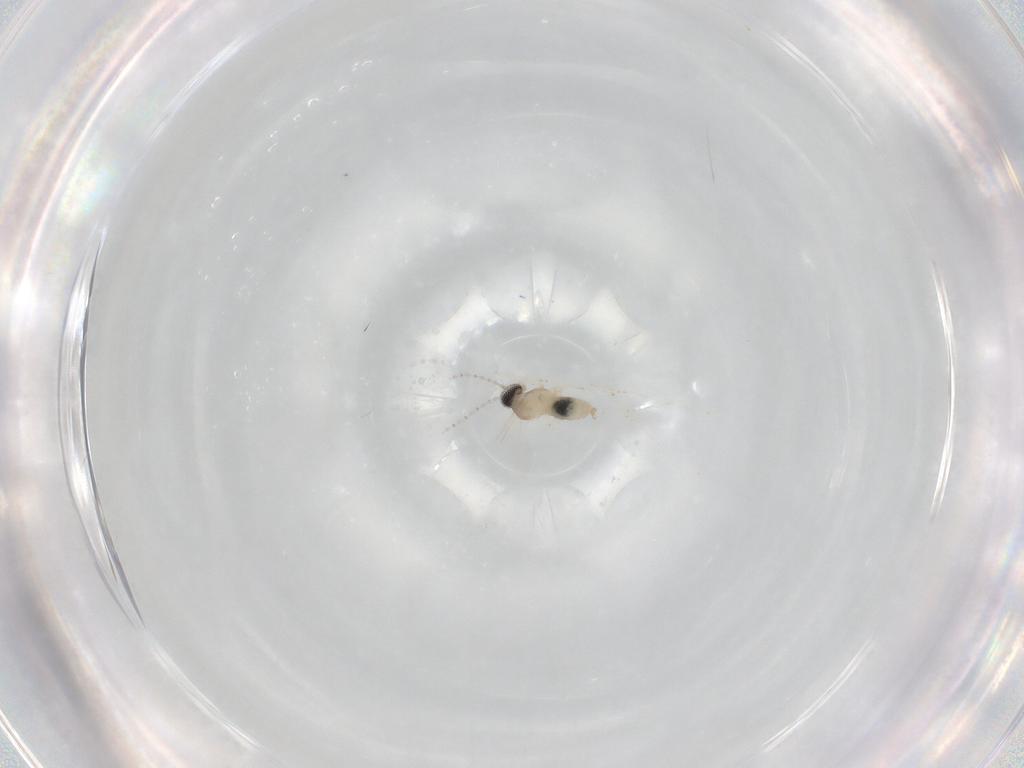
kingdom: Animalia
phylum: Arthropoda
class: Insecta
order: Diptera
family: Cecidomyiidae
